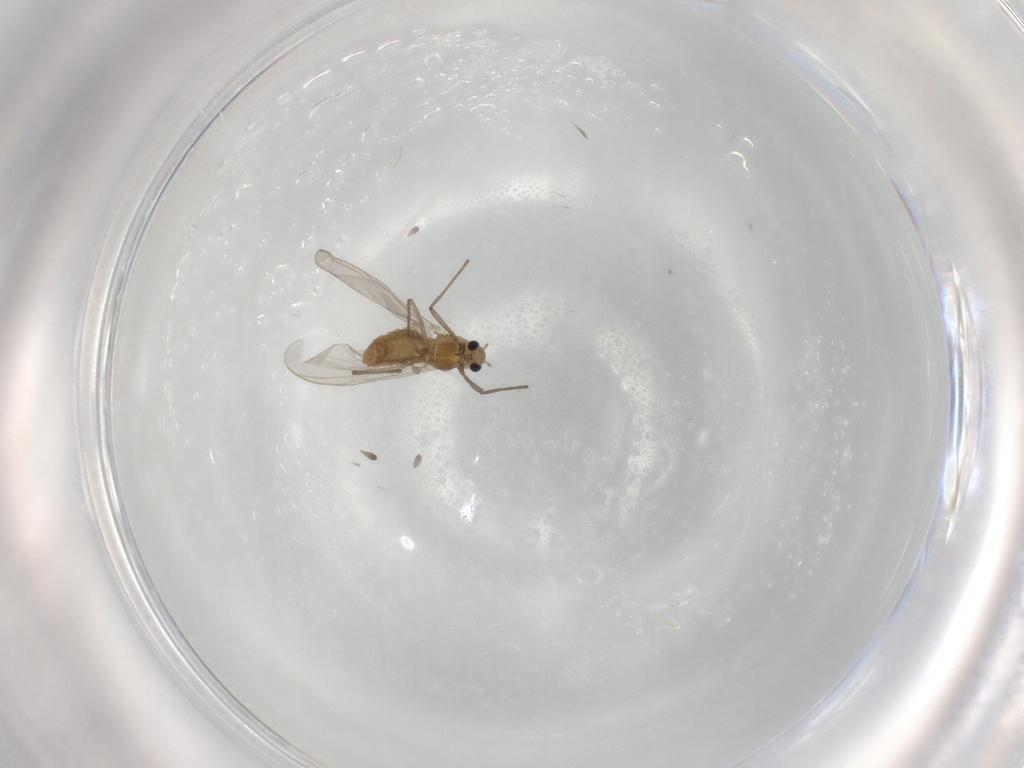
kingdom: Animalia
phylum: Arthropoda
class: Insecta
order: Diptera
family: Chironomidae
